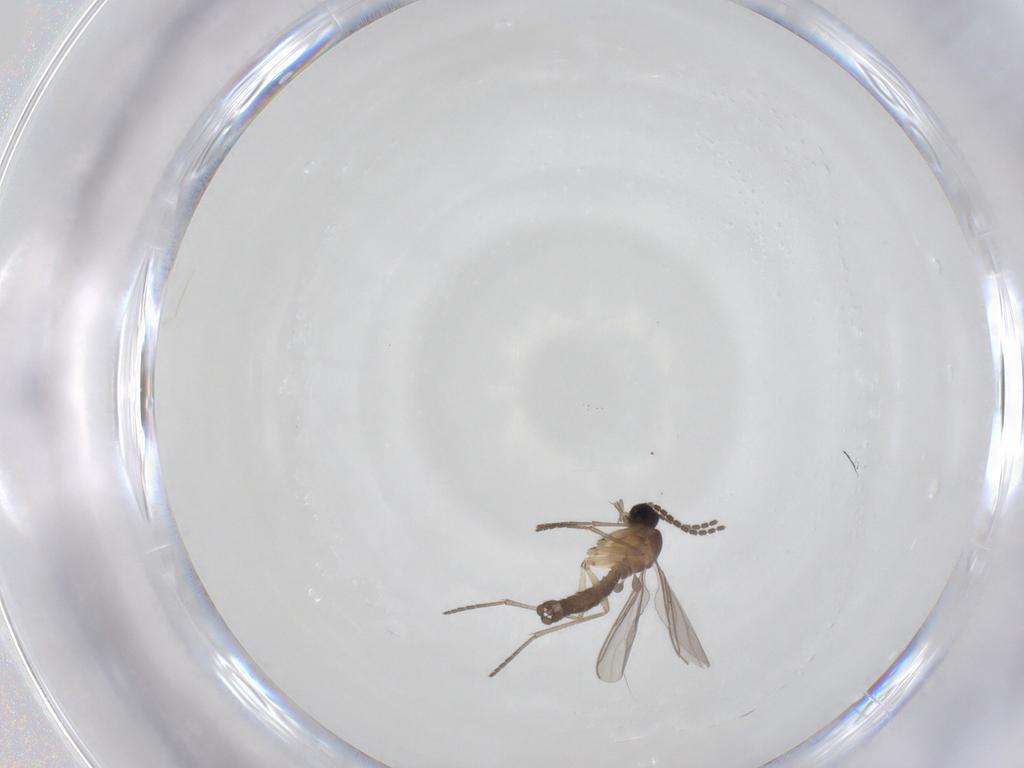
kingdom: Animalia
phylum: Arthropoda
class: Insecta
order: Diptera
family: Sciaridae
